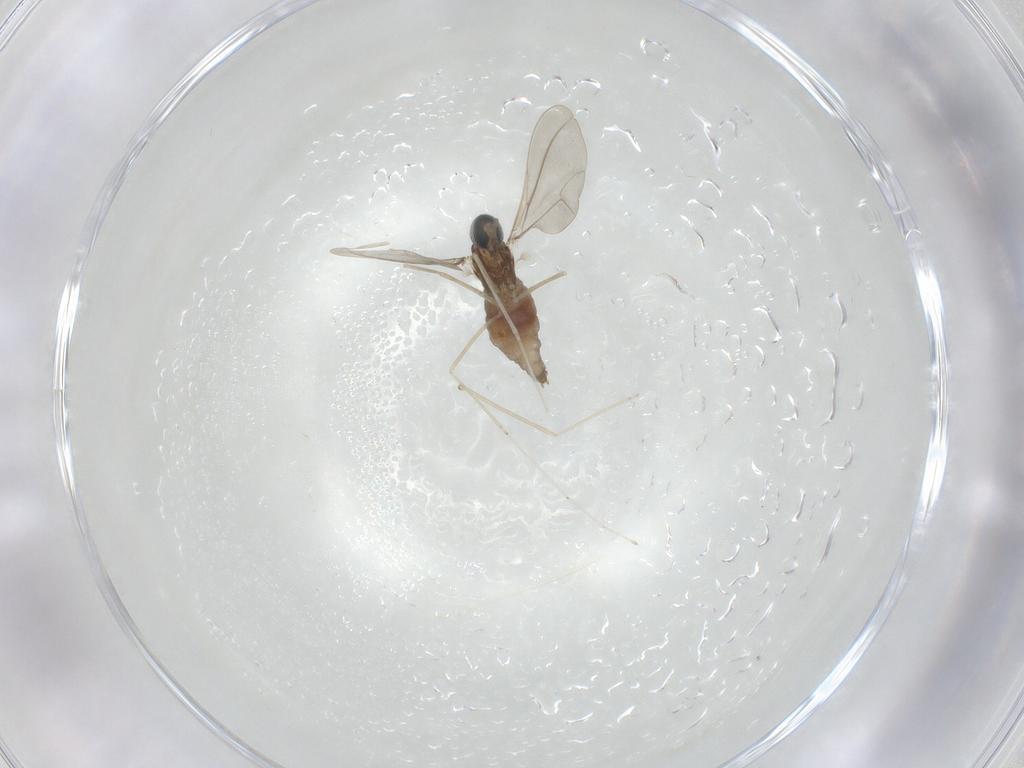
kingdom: Animalia
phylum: Arthropoda
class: Insecta
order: Diptera
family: Cecidomyiidae
